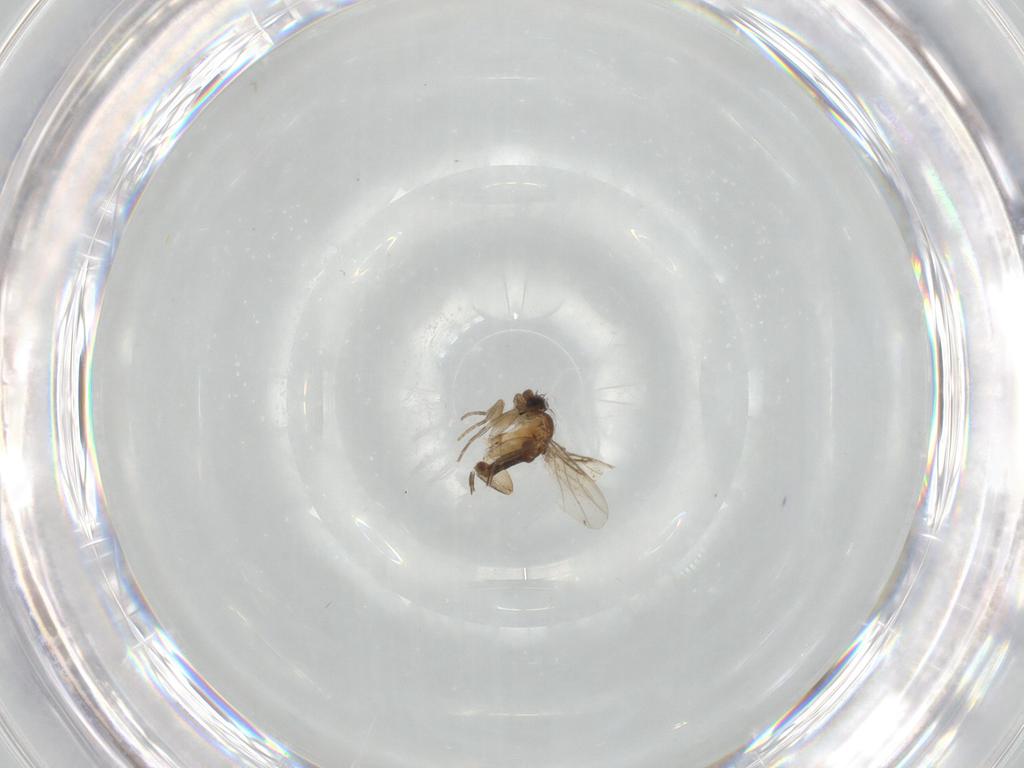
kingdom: Animalia
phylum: Arthropoda
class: Insecta
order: Diptera
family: Phoridae
